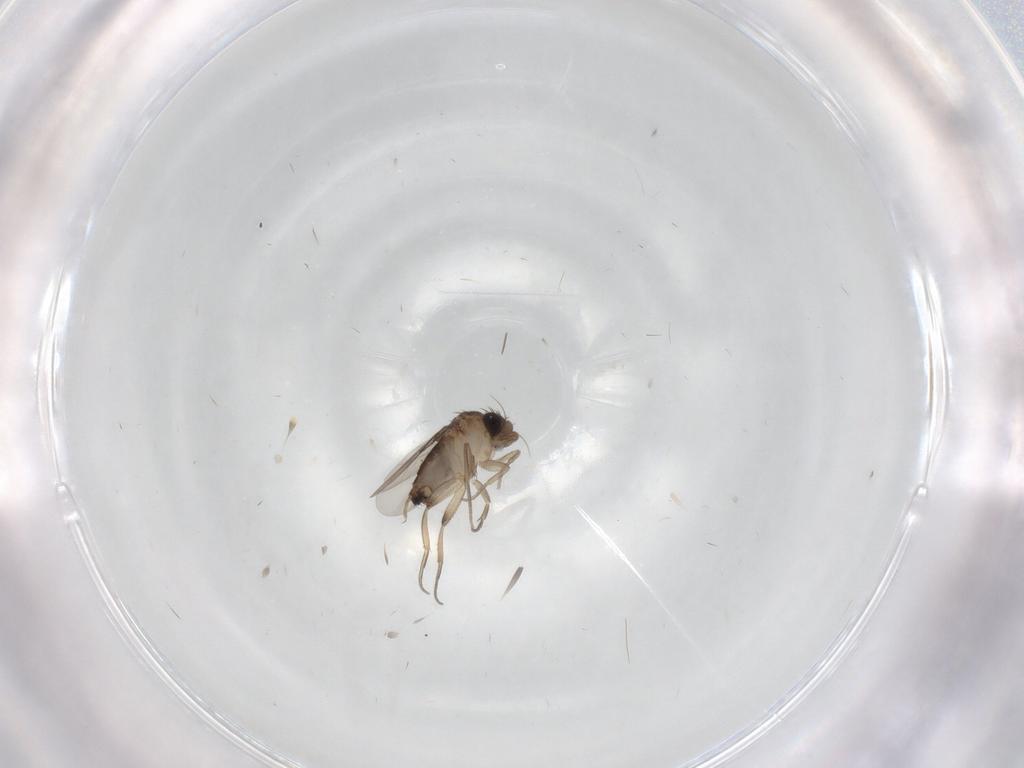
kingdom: Animalia
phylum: Arthropoda
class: Insecta
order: Diptera
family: Phoridae
